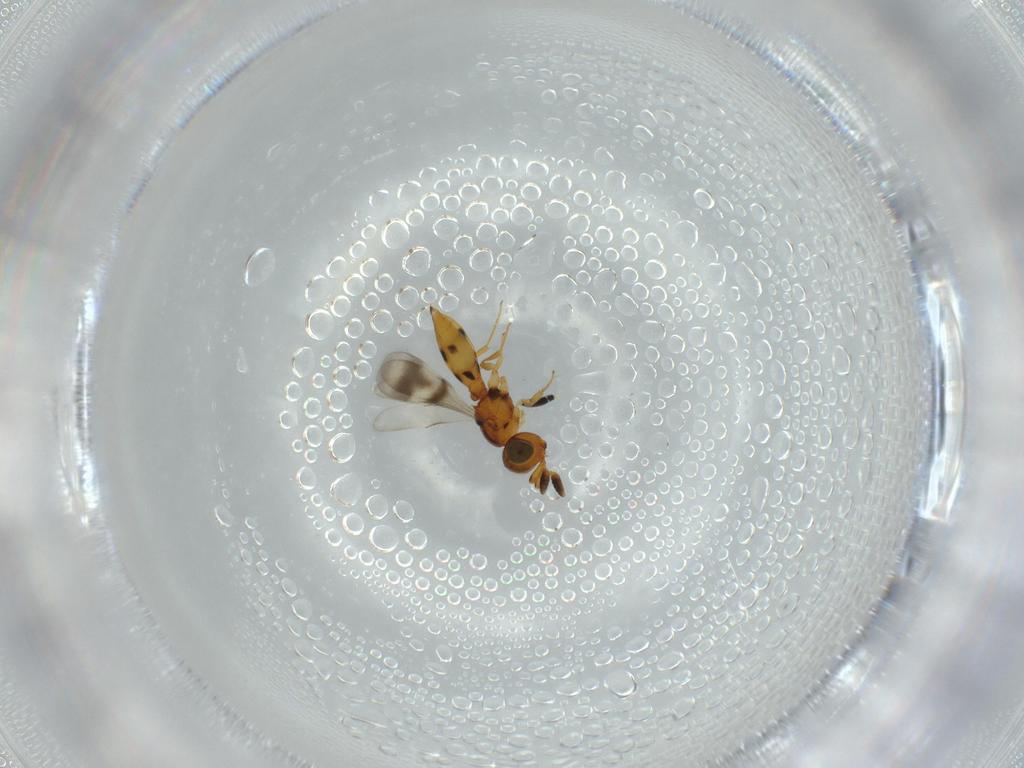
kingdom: Animalia
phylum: Arthropoda
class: Insecta
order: Hymenoptera
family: Scelionidae
